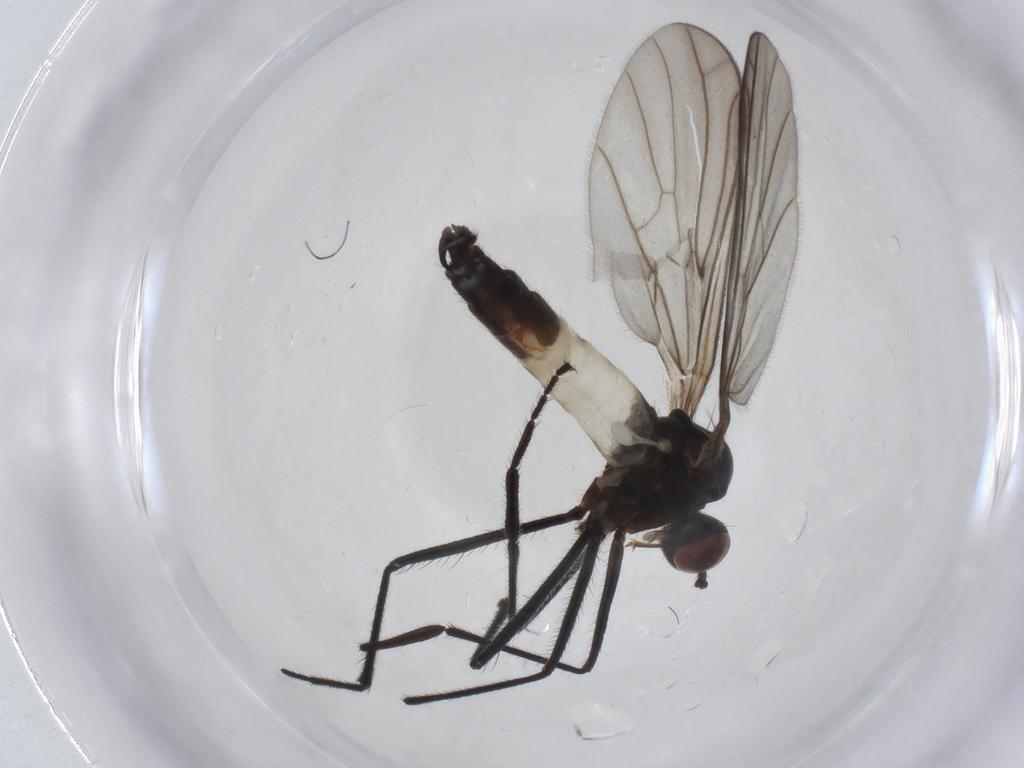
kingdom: Animalia
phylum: Arthropoda
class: Insecta
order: Diptera
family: Empididae
